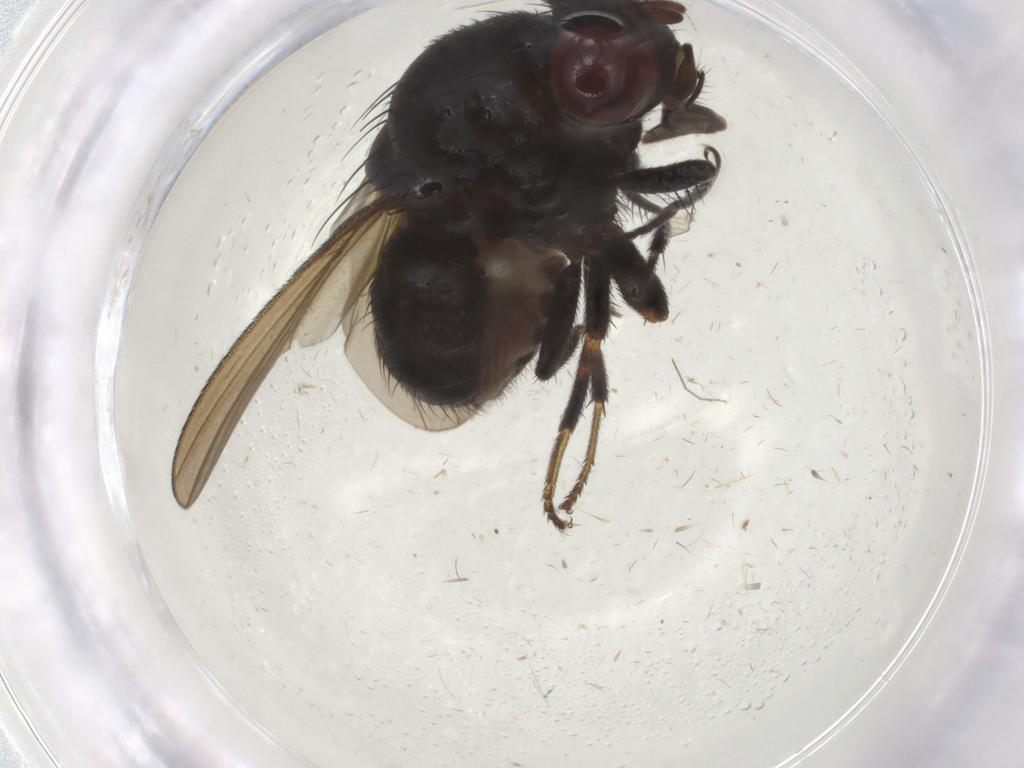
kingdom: Animalia
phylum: Arthropoda
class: Insecta
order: Diptera
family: Lauxaniidae
